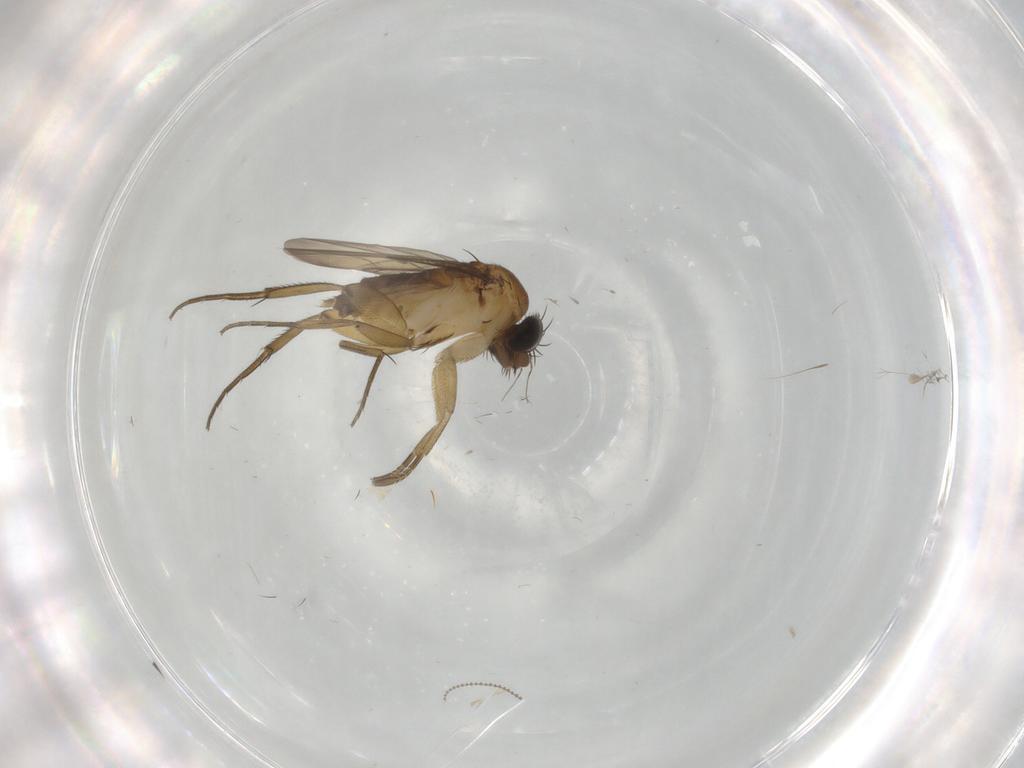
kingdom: Animalia
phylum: Arthropoda
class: Insecta
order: Diptera
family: Phoridae
